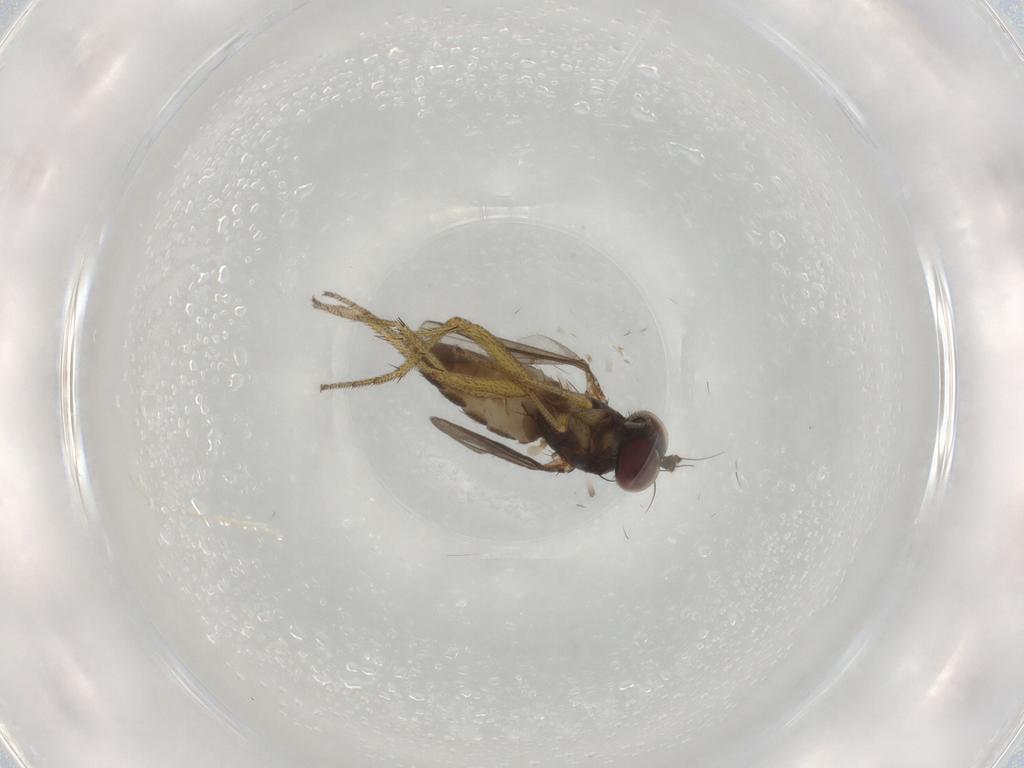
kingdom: Animalia
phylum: Arthropoda
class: Insecta
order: Diptera
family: Dolichopodidae
